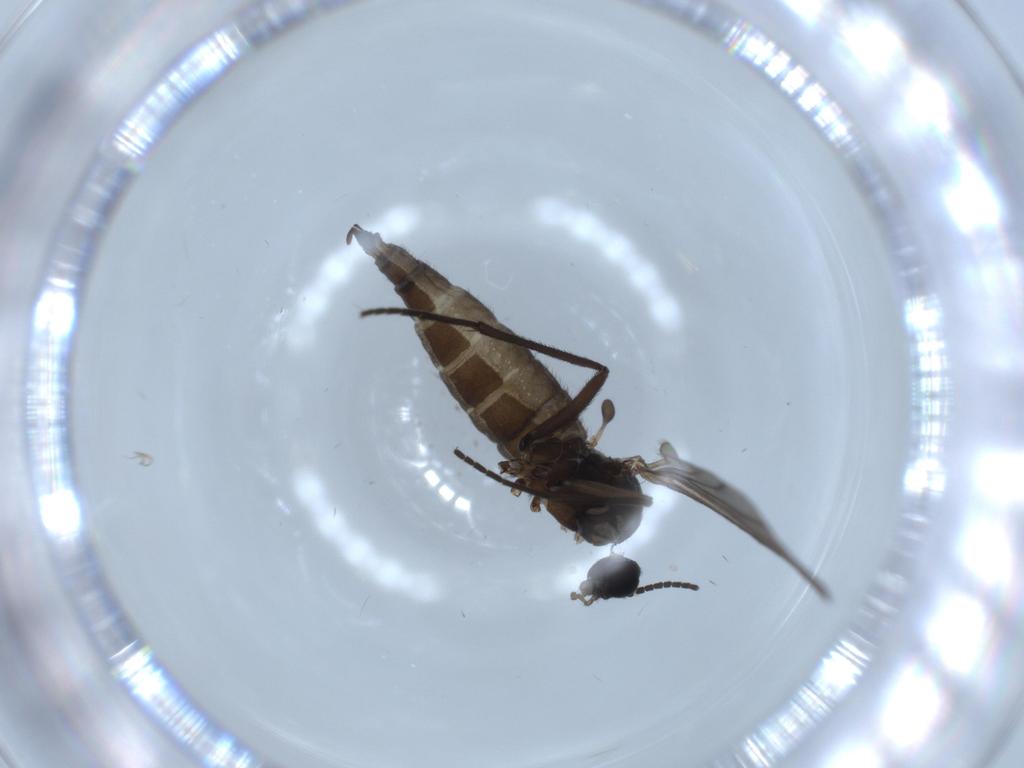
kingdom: Animalia
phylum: Arthropoda
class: Insecta
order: Diptera
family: Sciaridae
